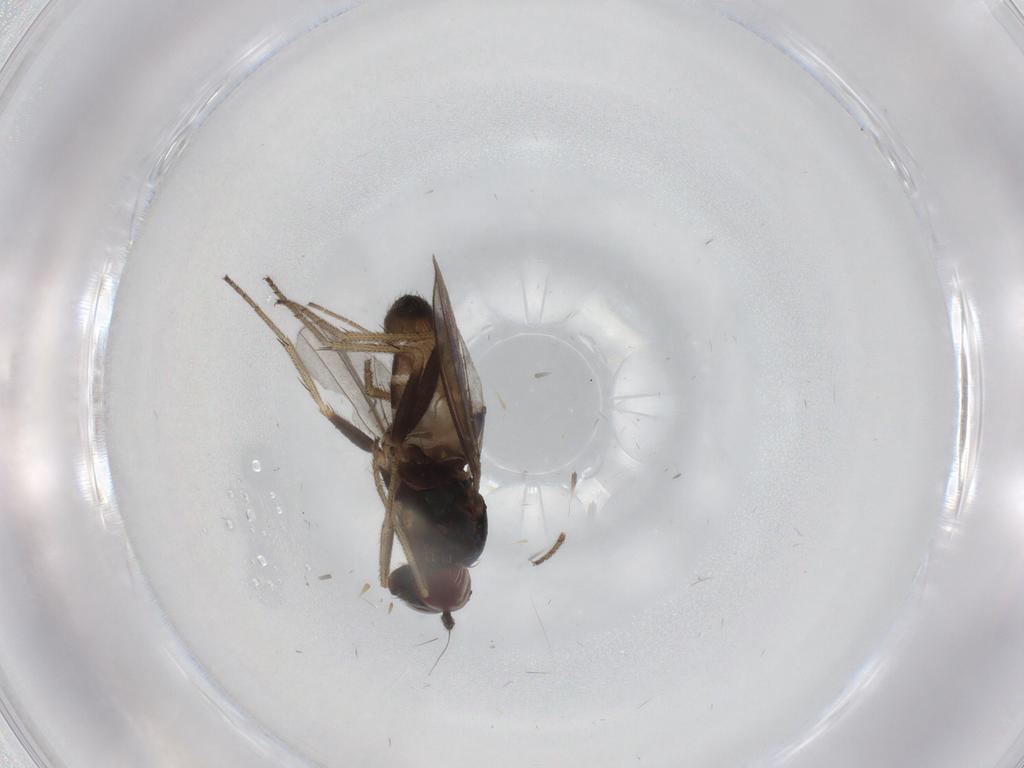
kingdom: Animalia
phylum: Arthropoda
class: Insecta
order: Diptera
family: Dolichopodidae
